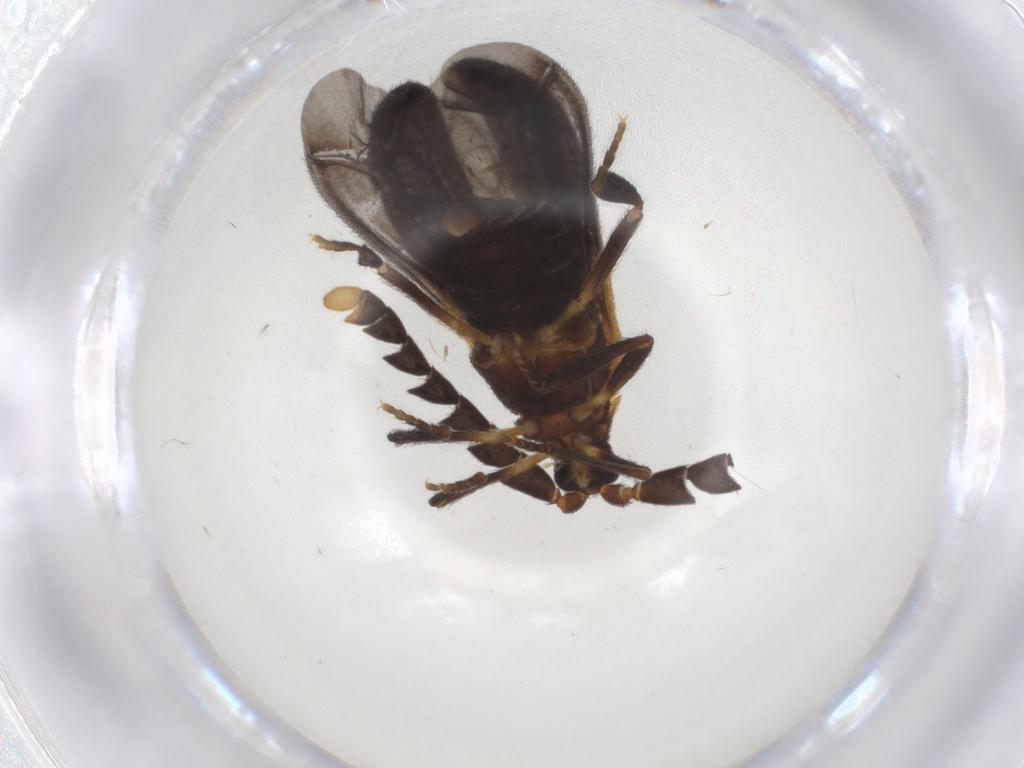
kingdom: Animalia
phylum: Arthropoda
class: Insecta
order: Coleoptera
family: Lycidae
